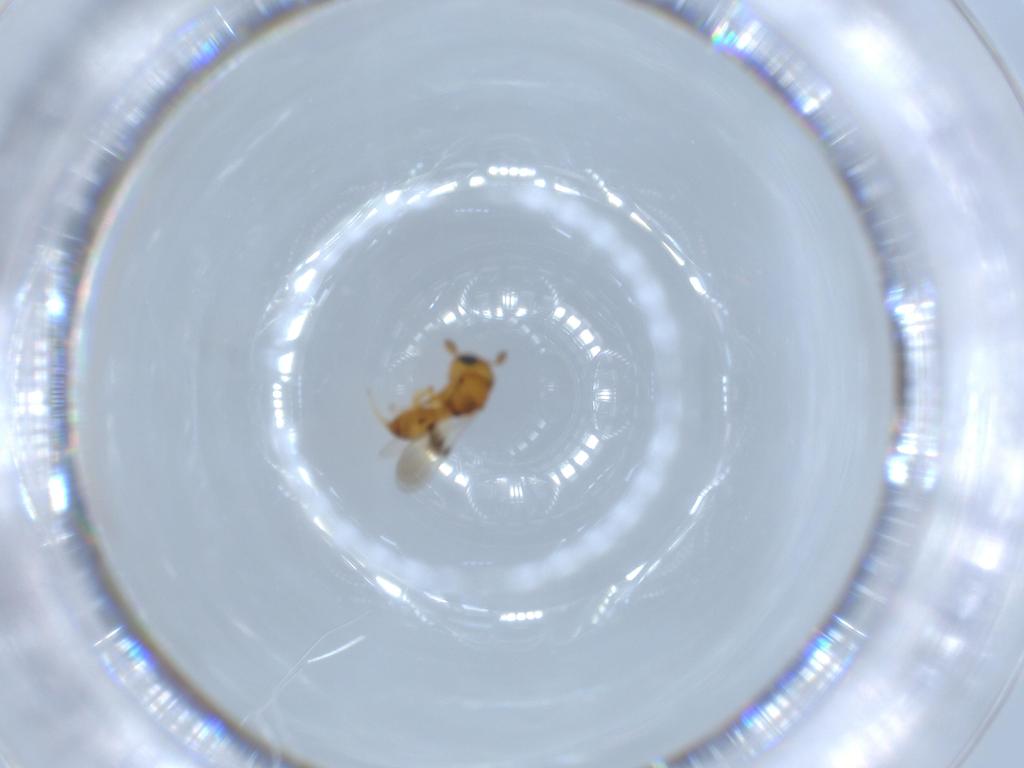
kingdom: Animalia
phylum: Arthropoda
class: Insecta
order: Hymenoptera
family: Scelionidae
